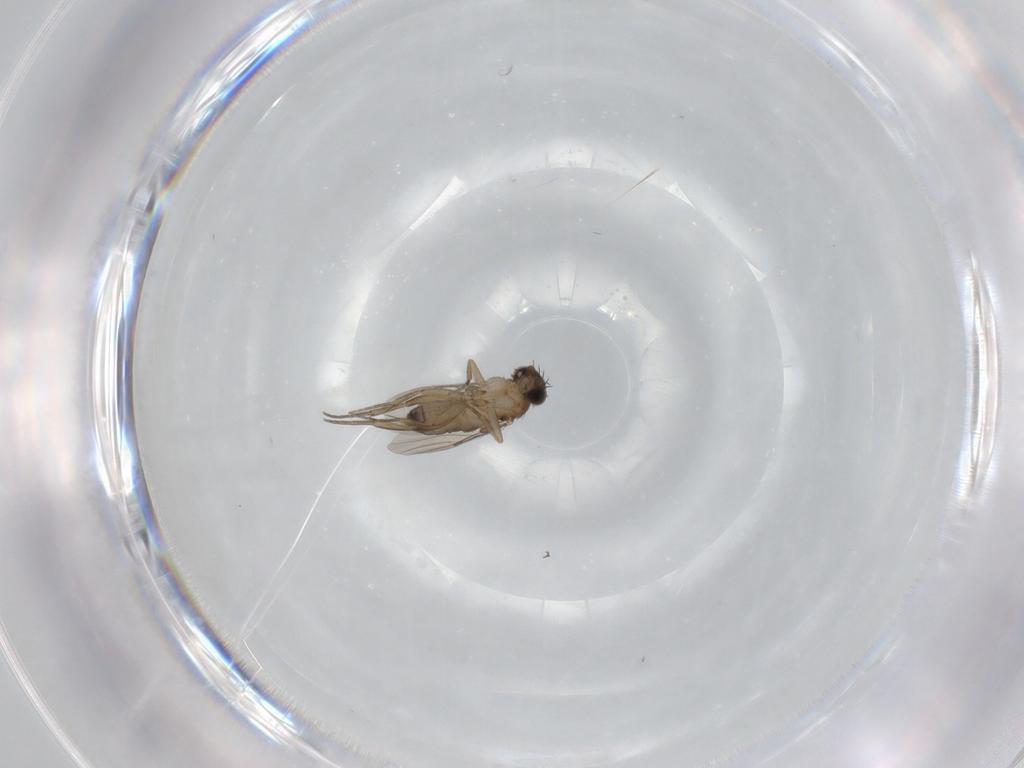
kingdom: Animalia
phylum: Arthropoda
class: Insecta
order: Diptera
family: Phoridae
